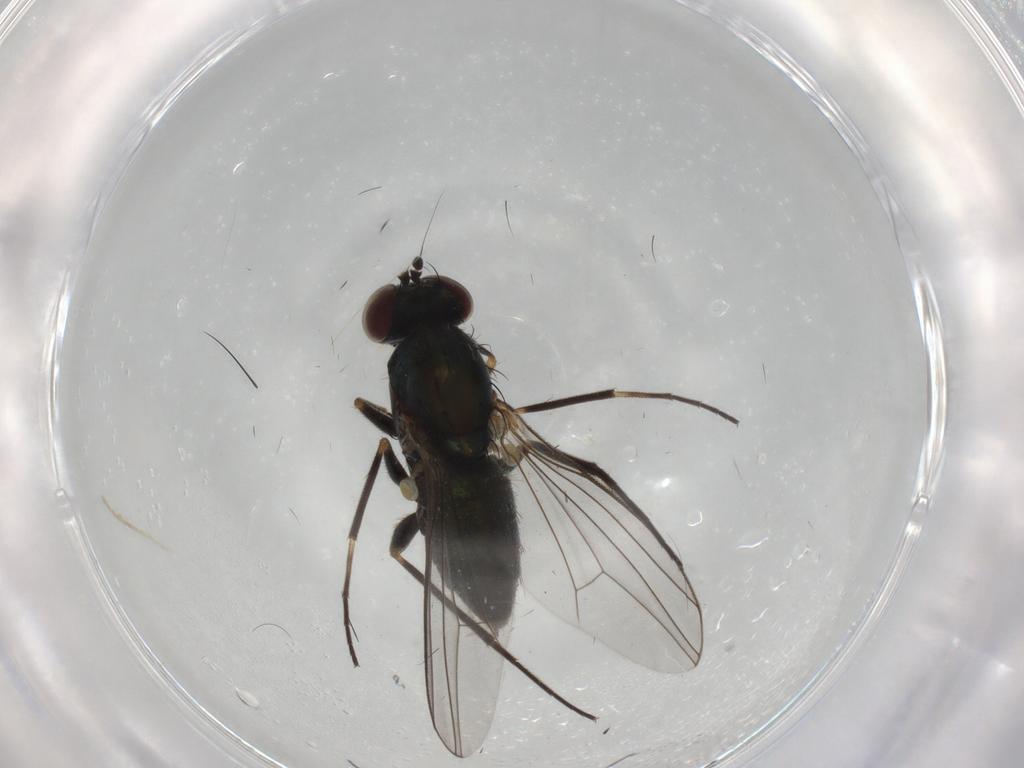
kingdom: Animalia
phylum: Arthropoda
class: Insecta
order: Diptera
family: Dolichopodidae
